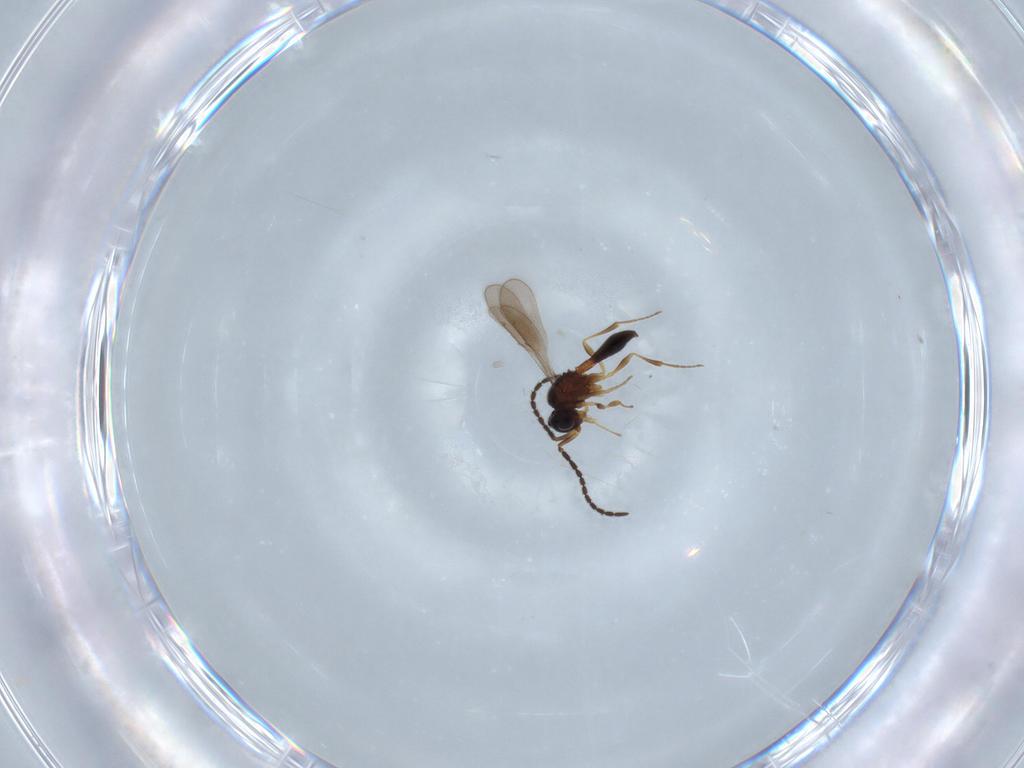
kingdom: Animalia
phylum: Arthropoda
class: Insecta
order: Hymenoptera
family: Scelionidae
